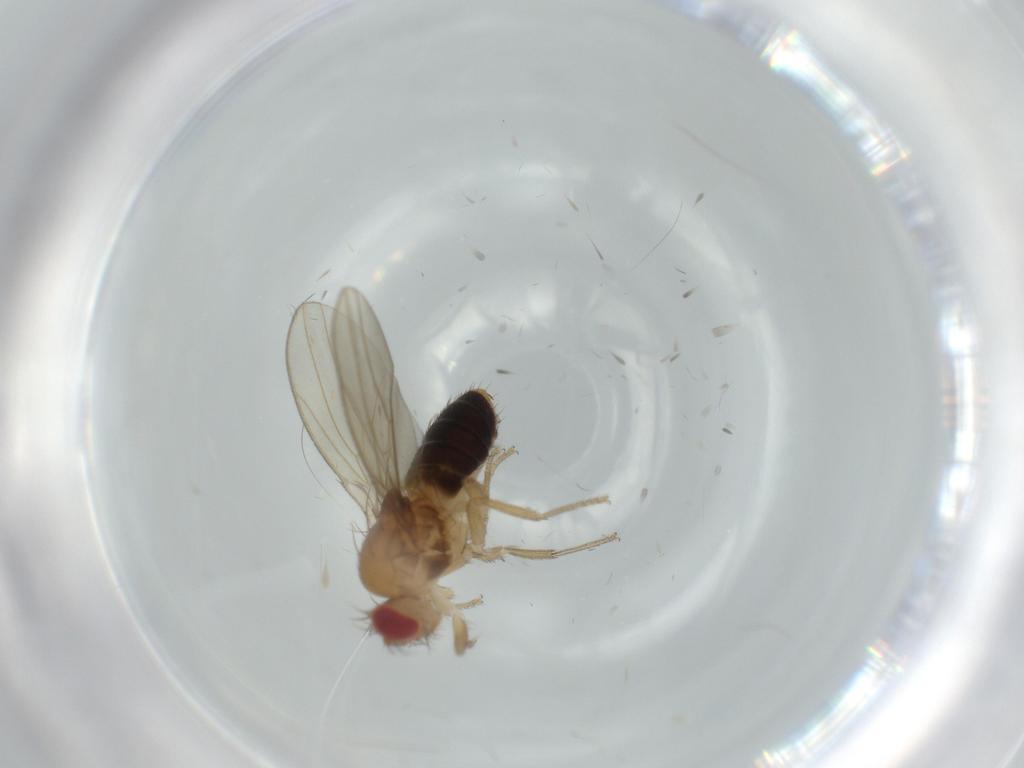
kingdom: Animalia
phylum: Arthropoda
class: Insecta
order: Diptera
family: Drosophilidae
